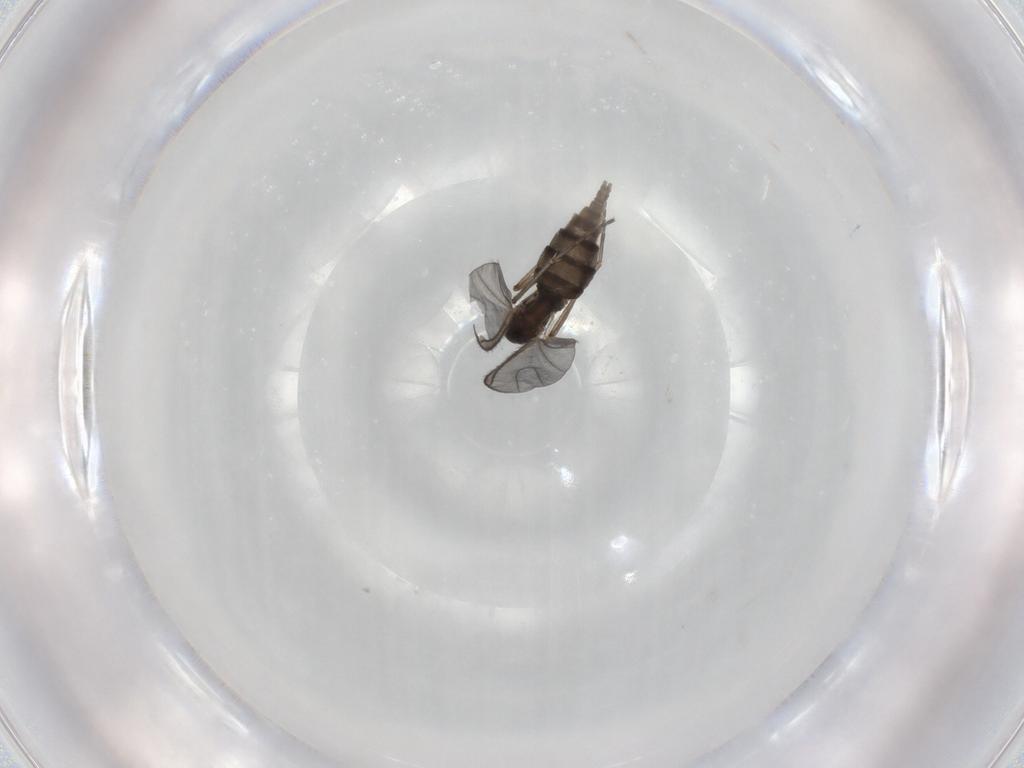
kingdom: Animalia
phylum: Arthropoda
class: Insecta
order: Diptera
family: Sciaridae
